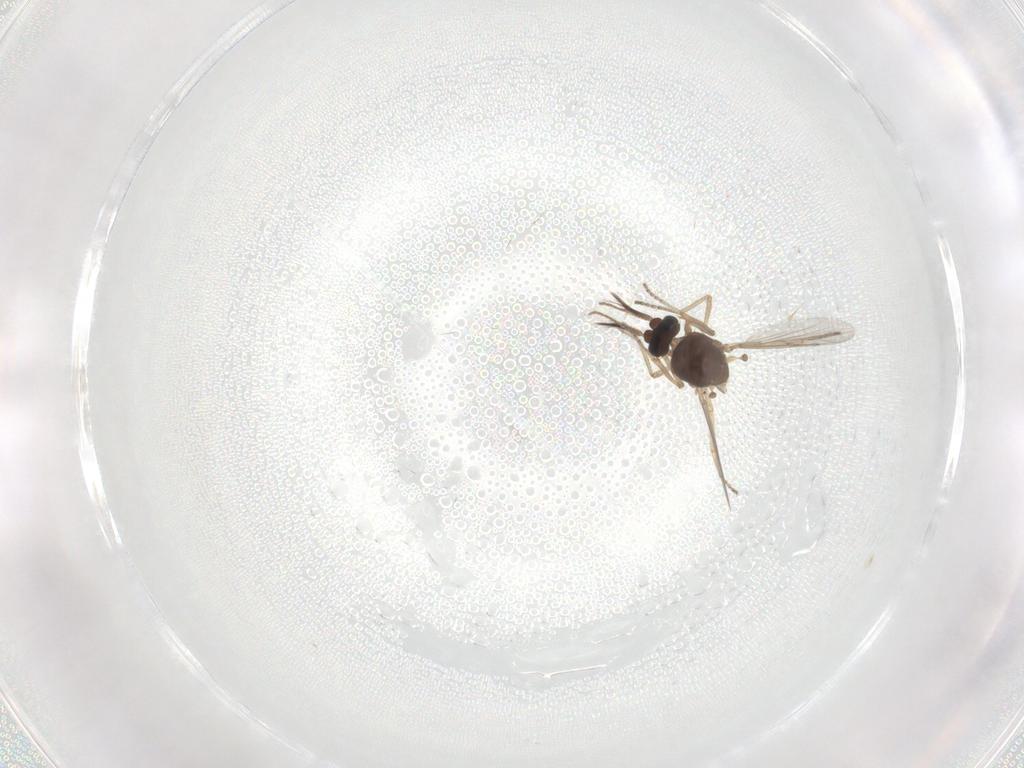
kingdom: Animalia
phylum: Arthropoda
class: Insecta
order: Diptera
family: Ceratopogonidae
